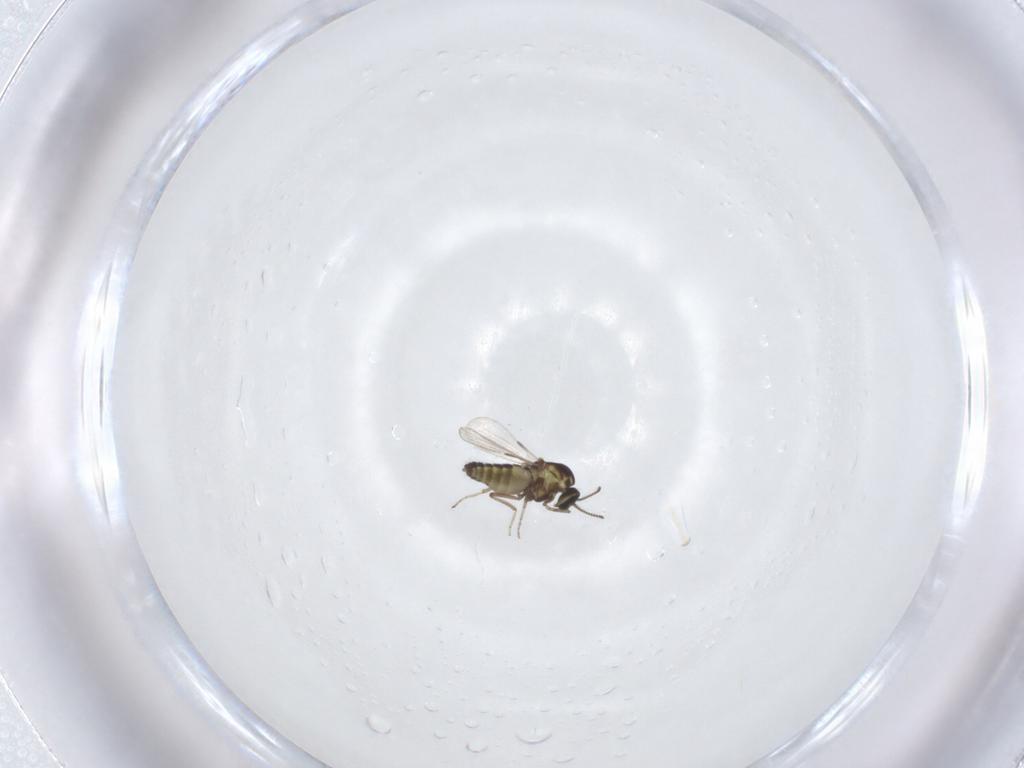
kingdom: Animalia
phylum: Arthropoda
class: Insecta
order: Diptera
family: Ceratopogonidae
